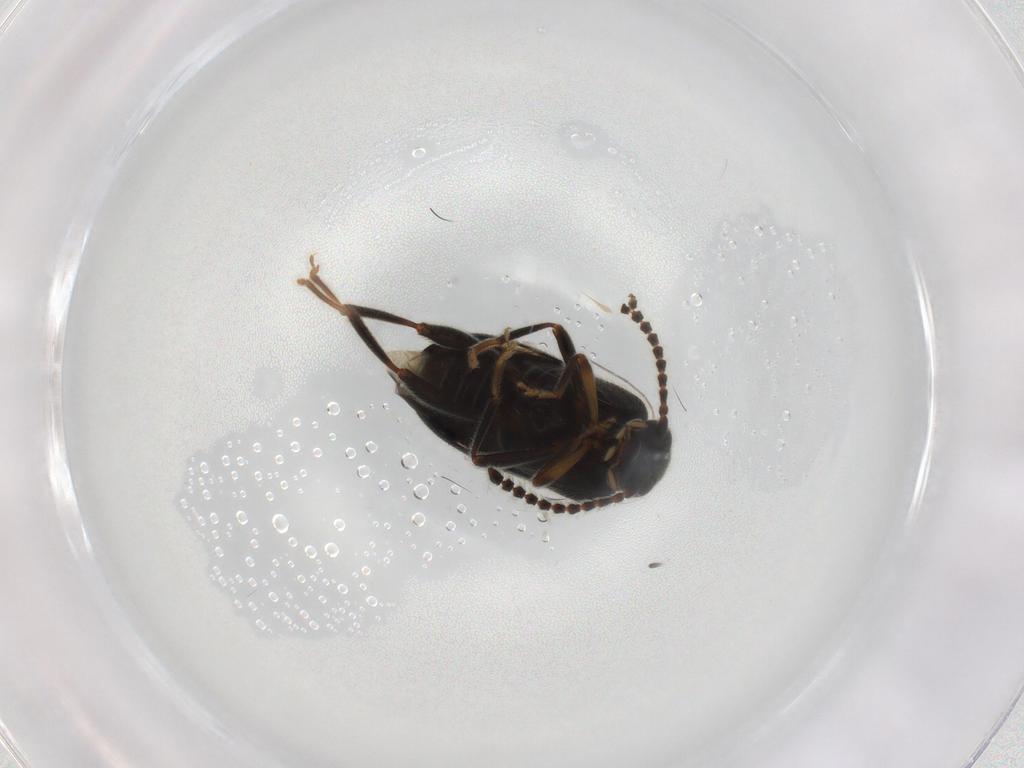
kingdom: Animalia
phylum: Arthropoda
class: Insecta
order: Coleoptera
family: Aderidae
